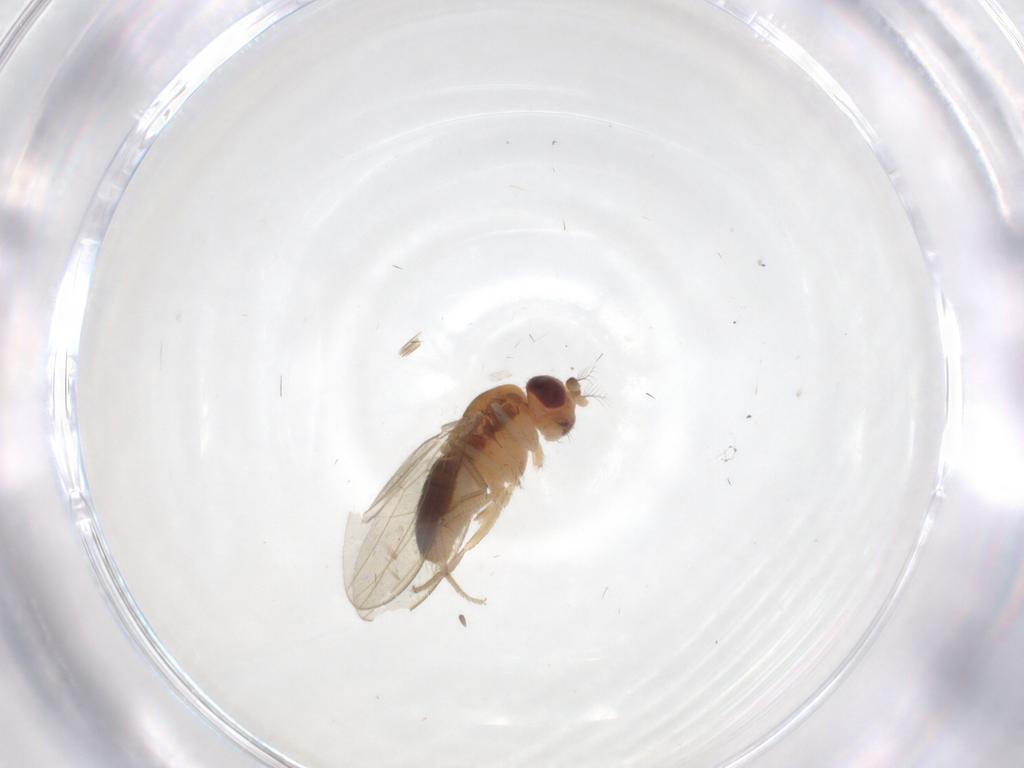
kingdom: Animalia
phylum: Arthropoda
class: Insecta
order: Diptera
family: Drosophilidae
